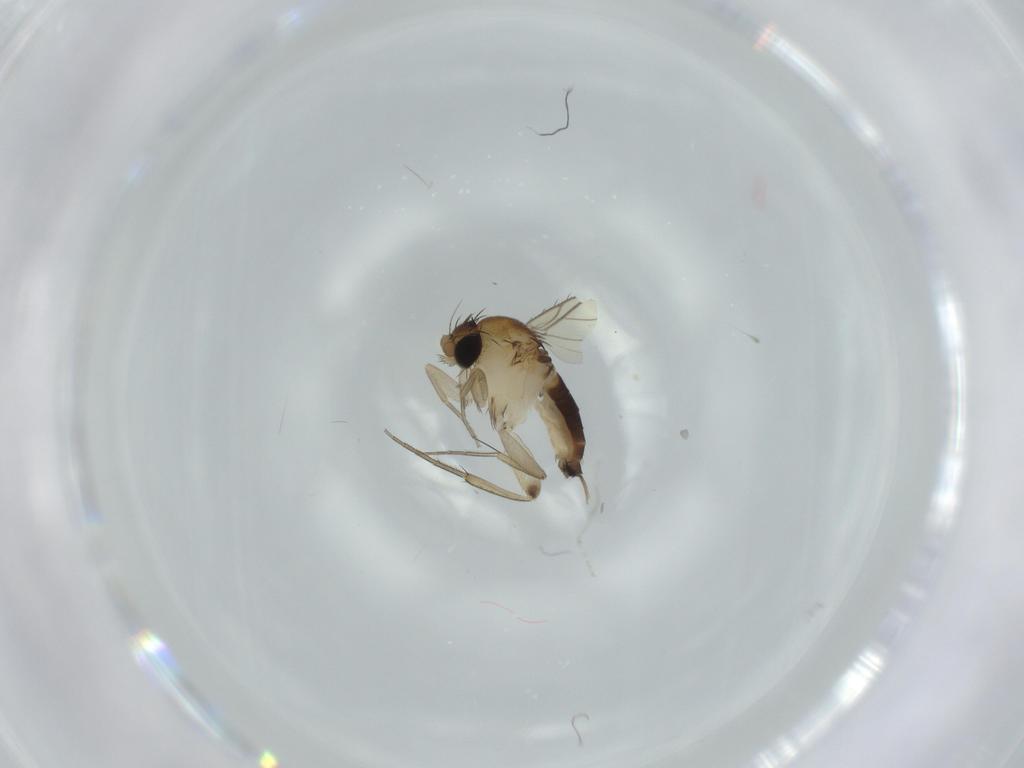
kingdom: Animalia
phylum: Arthropoda
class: Insecta
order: Diptera
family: Phoridae
